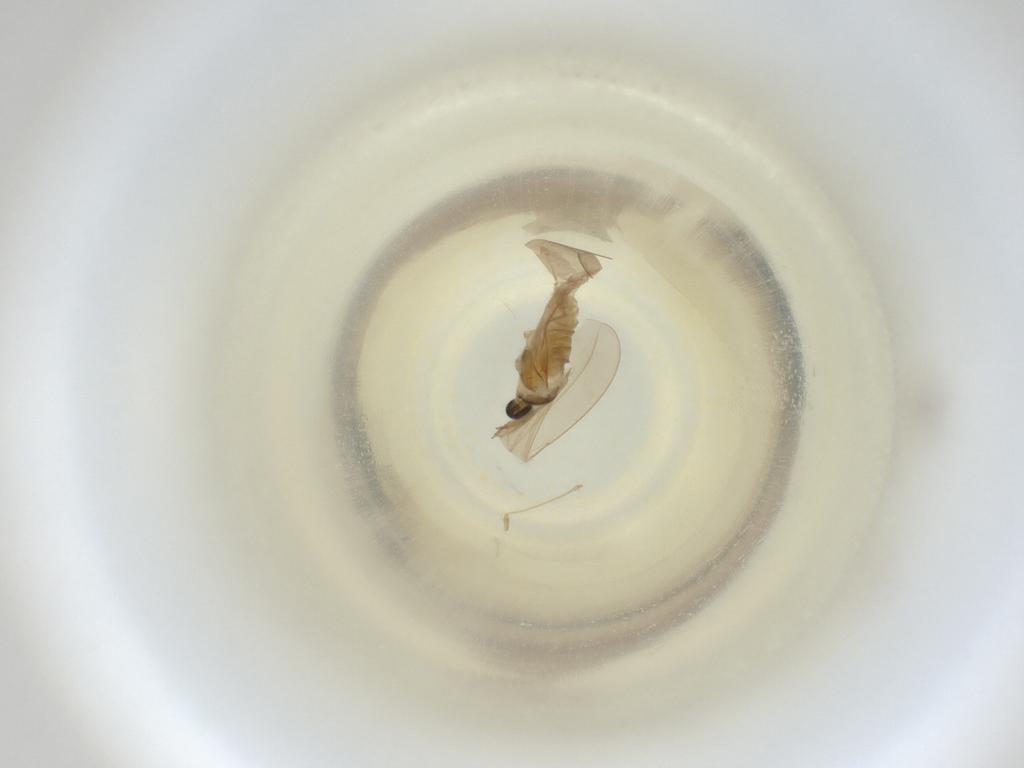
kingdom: Animalia
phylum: Arthropoda
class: Insecta
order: Diptera
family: Cecidomyiidae
